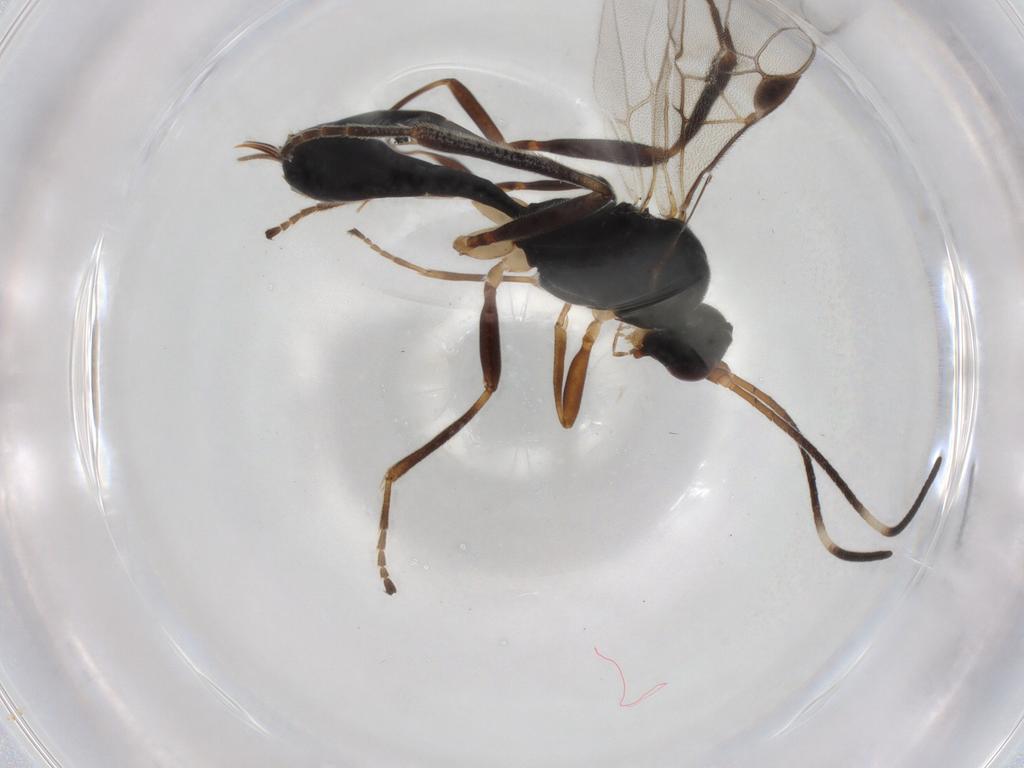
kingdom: Animalia
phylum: Arthropoda
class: Insecta
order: Hymenoptera
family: Braconidae
